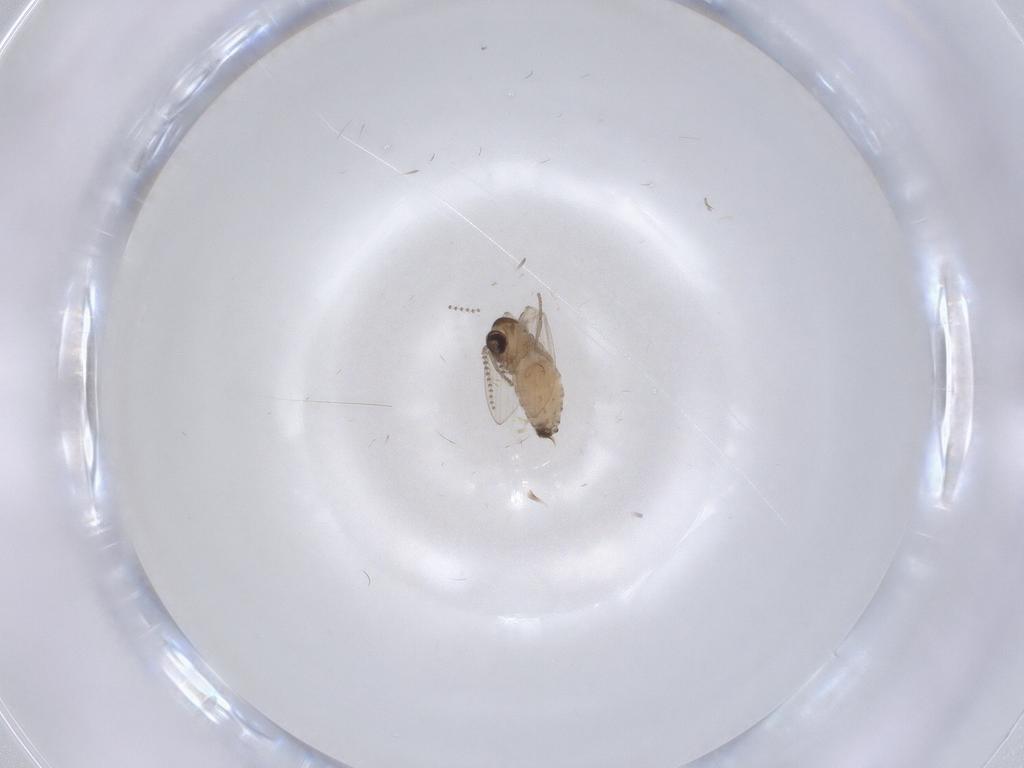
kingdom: Animalia
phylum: Arthropoda
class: Insecta
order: Diptera
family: Psychodidae
